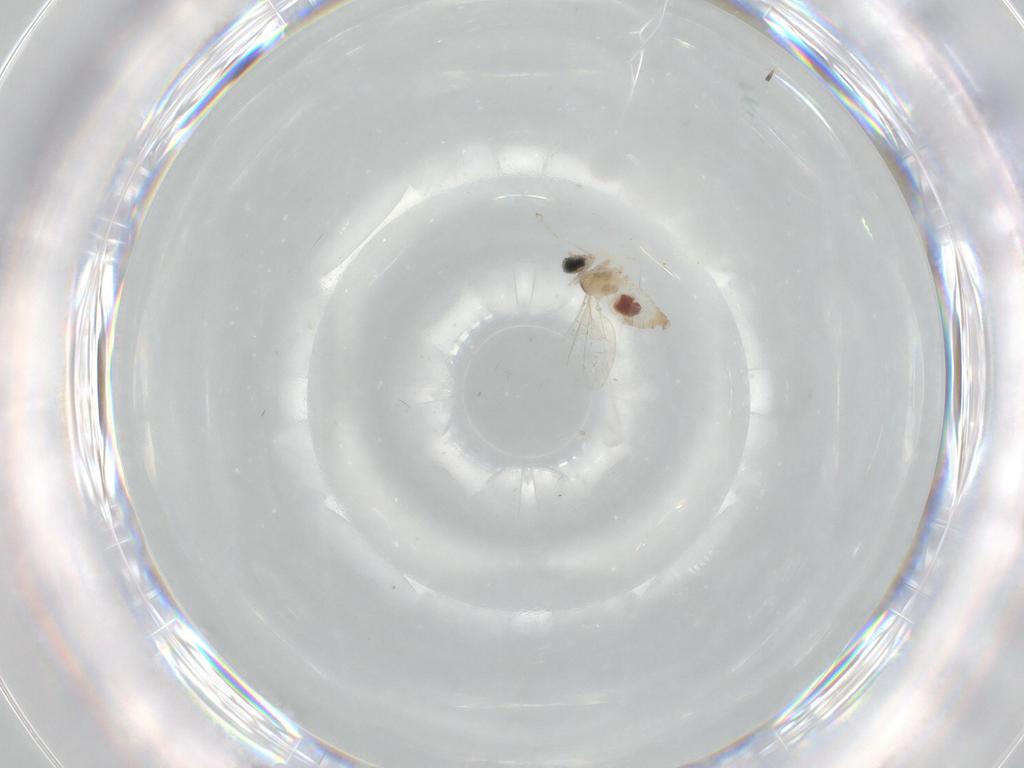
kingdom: Animalia
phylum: Arthropoda
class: Insecta
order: Diptera
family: Cecidomyiidae
